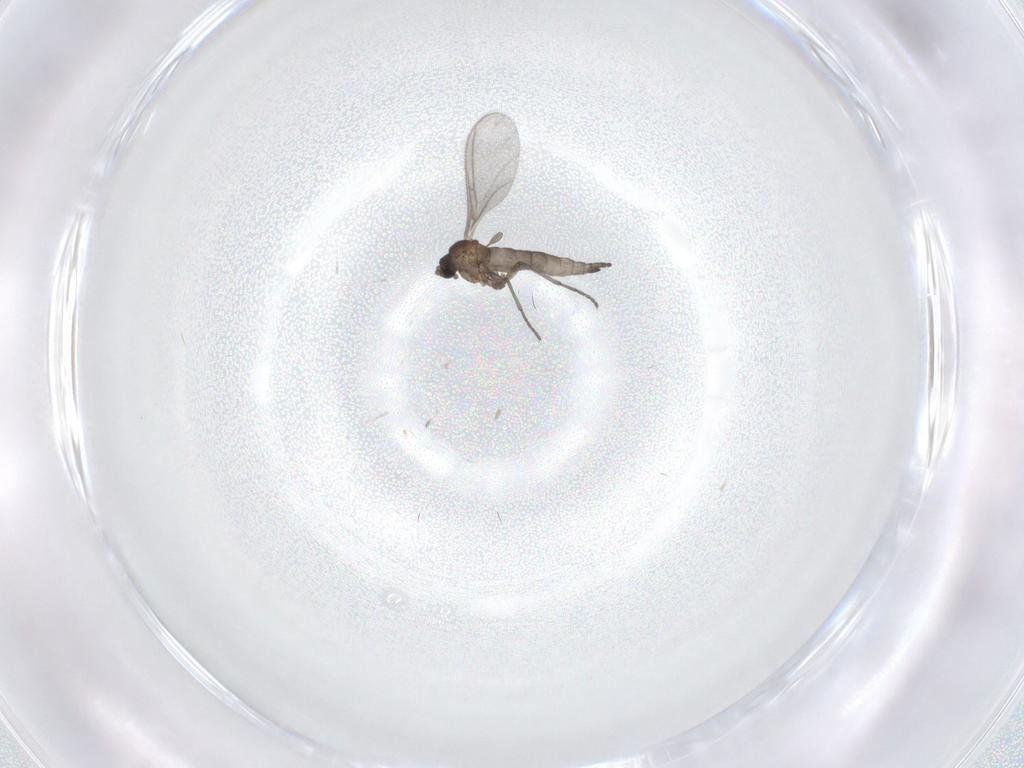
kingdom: Animalia
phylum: Arthropoda
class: Insecta
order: Diptera
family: Sciaridae
